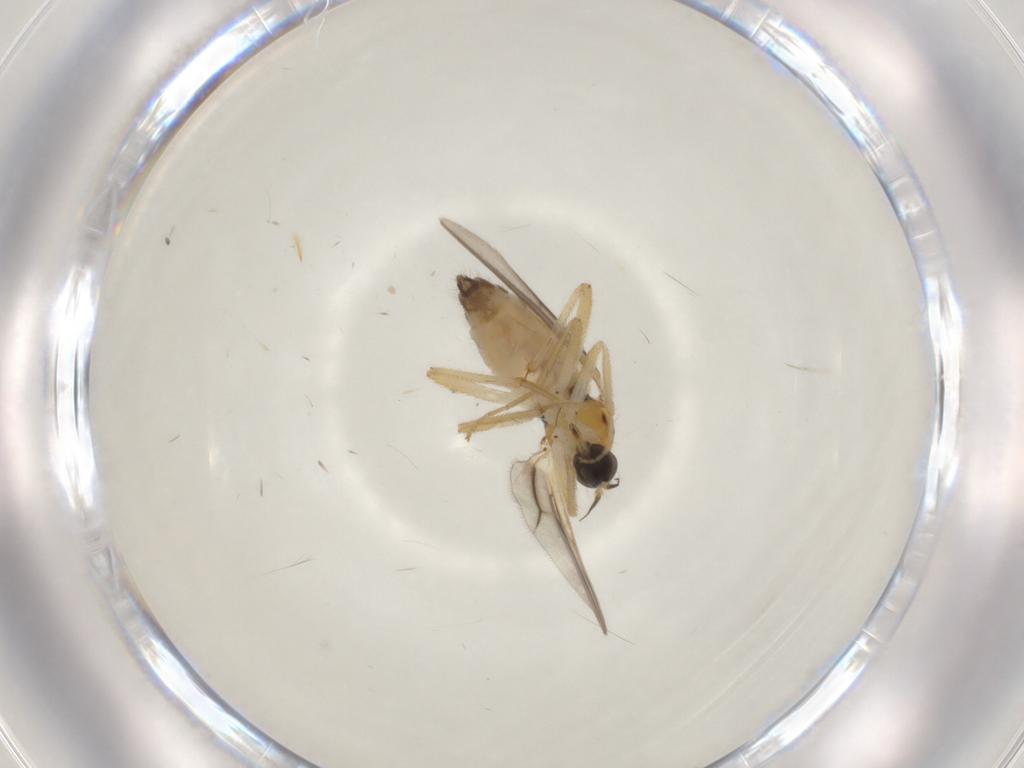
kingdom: Animalia
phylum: Arthropoda
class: Insecta
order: Diptera
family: Hybotidae
